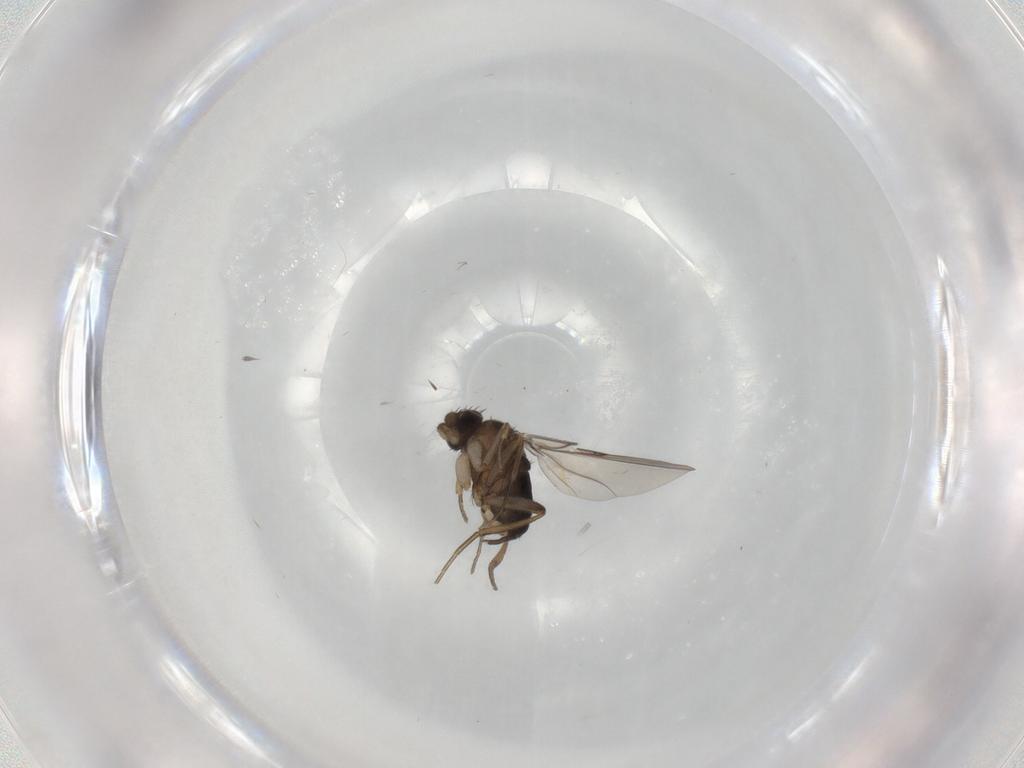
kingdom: Animalia
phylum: Arthropoda
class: Insecta
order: Diptera
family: Phoridae
